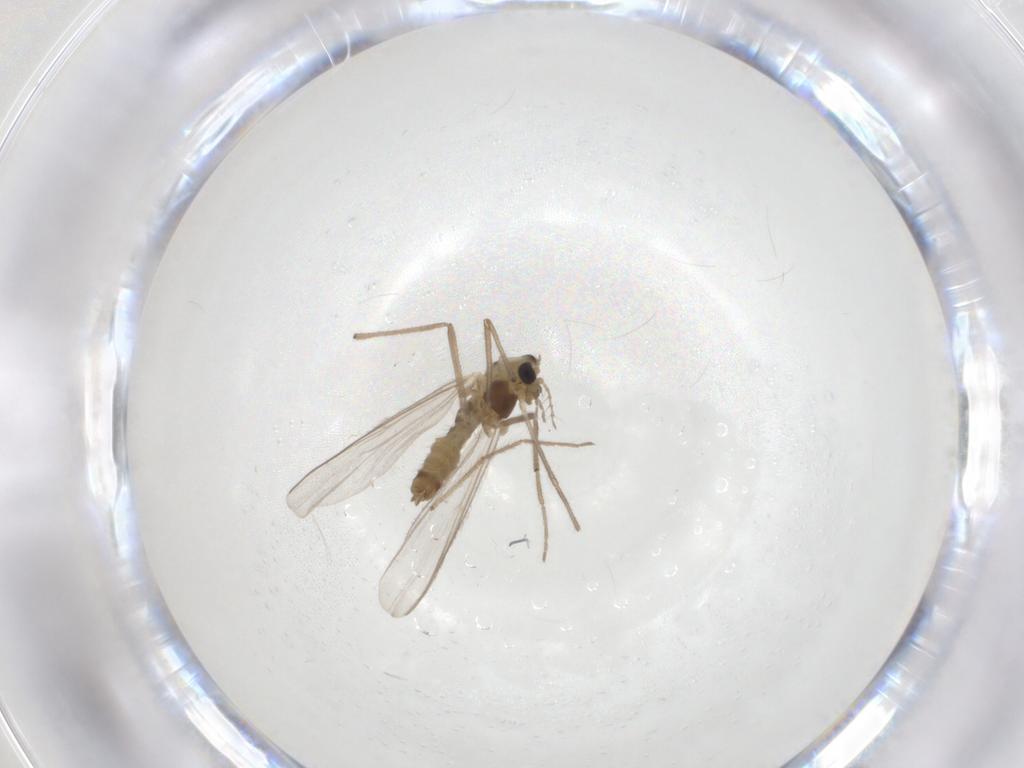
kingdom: Animalia
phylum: Arthropoda
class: Insecta
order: Diptera
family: Chironomidae
